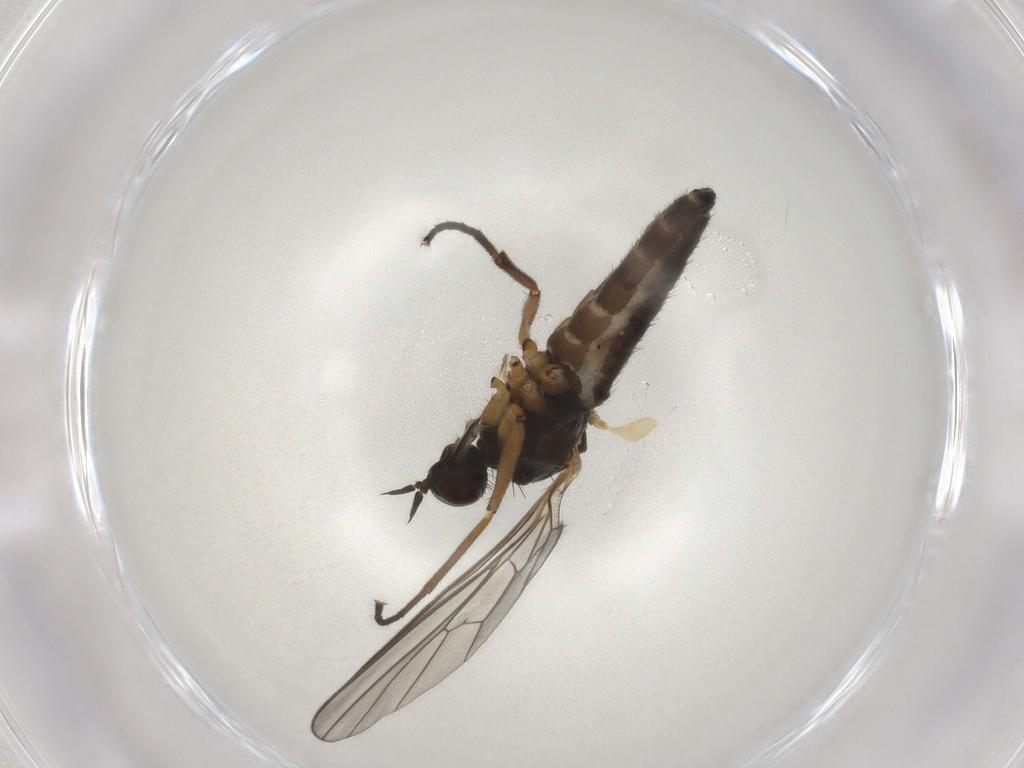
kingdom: Animalia
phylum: Arthropoda
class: Insecta
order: Diptera
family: Empididae
